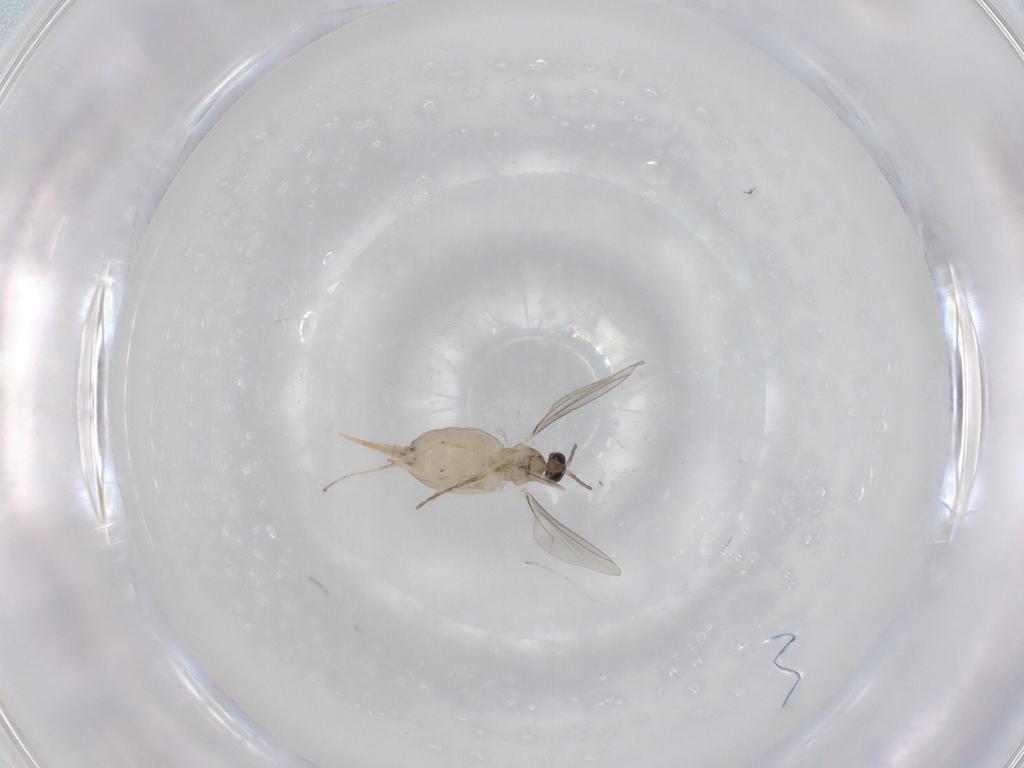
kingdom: Animalia
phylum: Arthropoda
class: Insecta
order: Diptera
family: Cecidomyiidae
